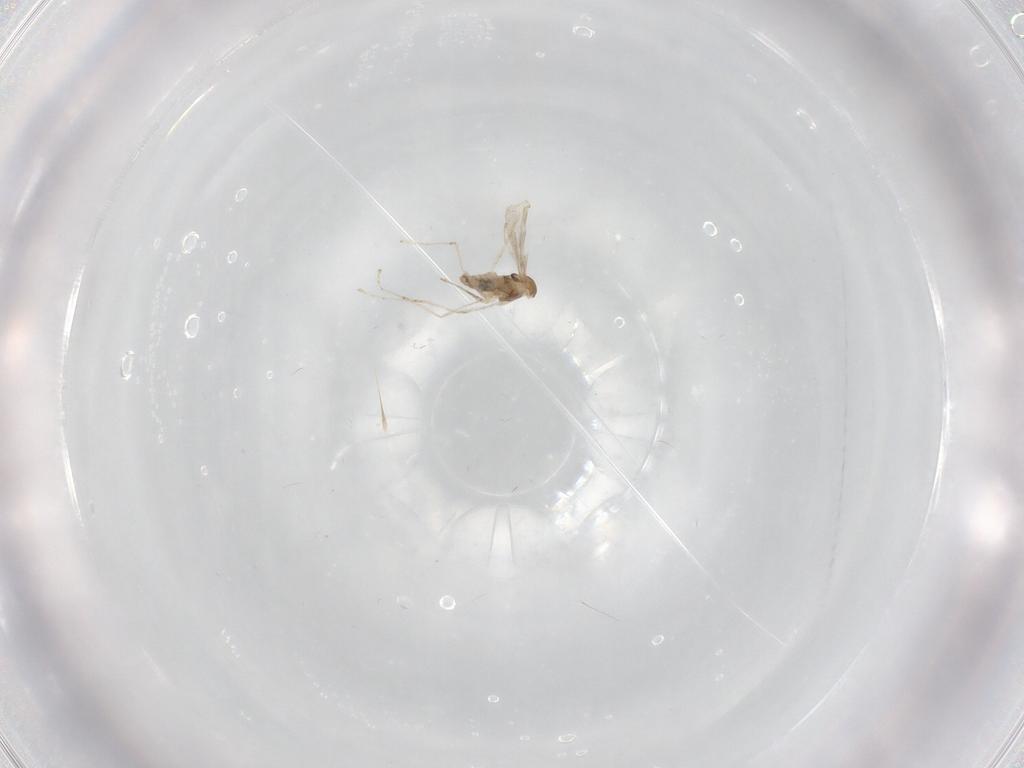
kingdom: Animalia
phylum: Arthropoda
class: Insecta
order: Diptera
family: Cecidomyiidae
